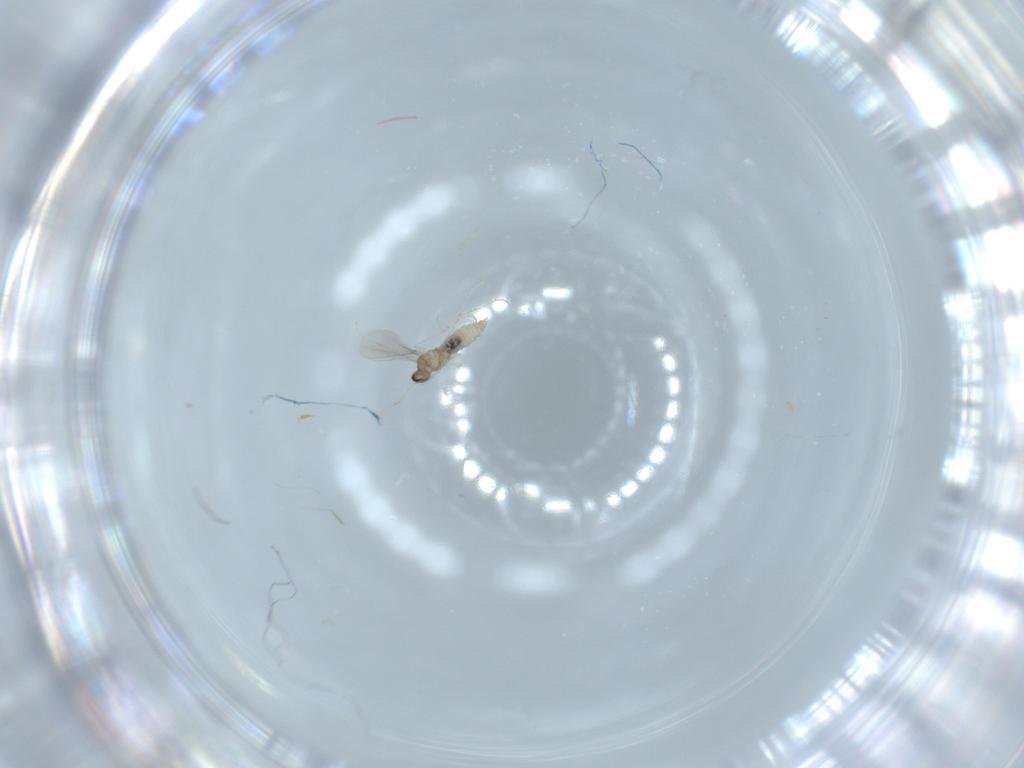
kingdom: Animalia
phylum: Arthropoda
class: Insecta
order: Diptera
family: Cecidomyiidae
